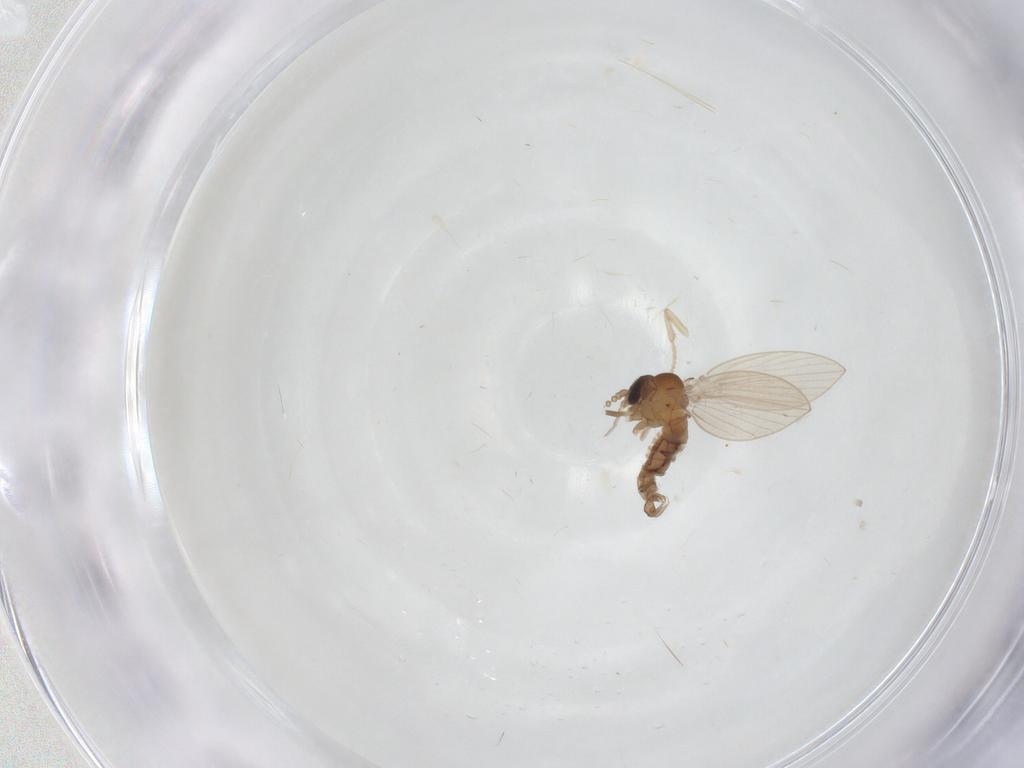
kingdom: Animalia
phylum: Arthropoda
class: Insecta
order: Diptera
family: Psychodidae
